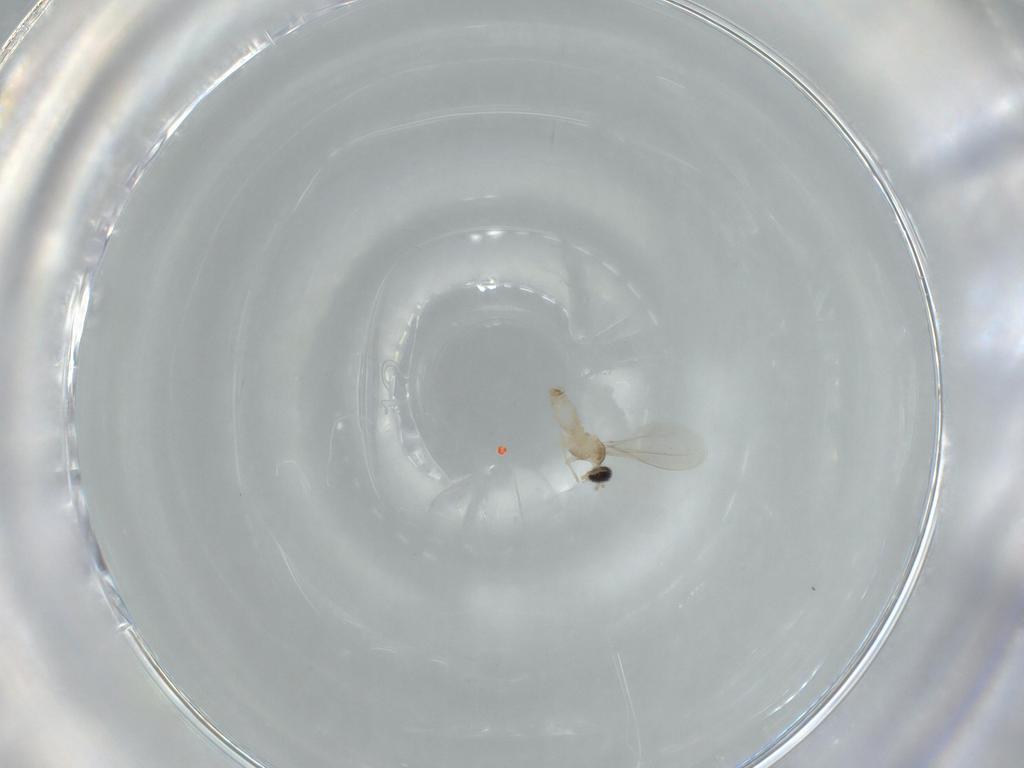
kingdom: Animalia
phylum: Arthropoda
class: Insecta
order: Diptera
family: Cecidomyiidae
